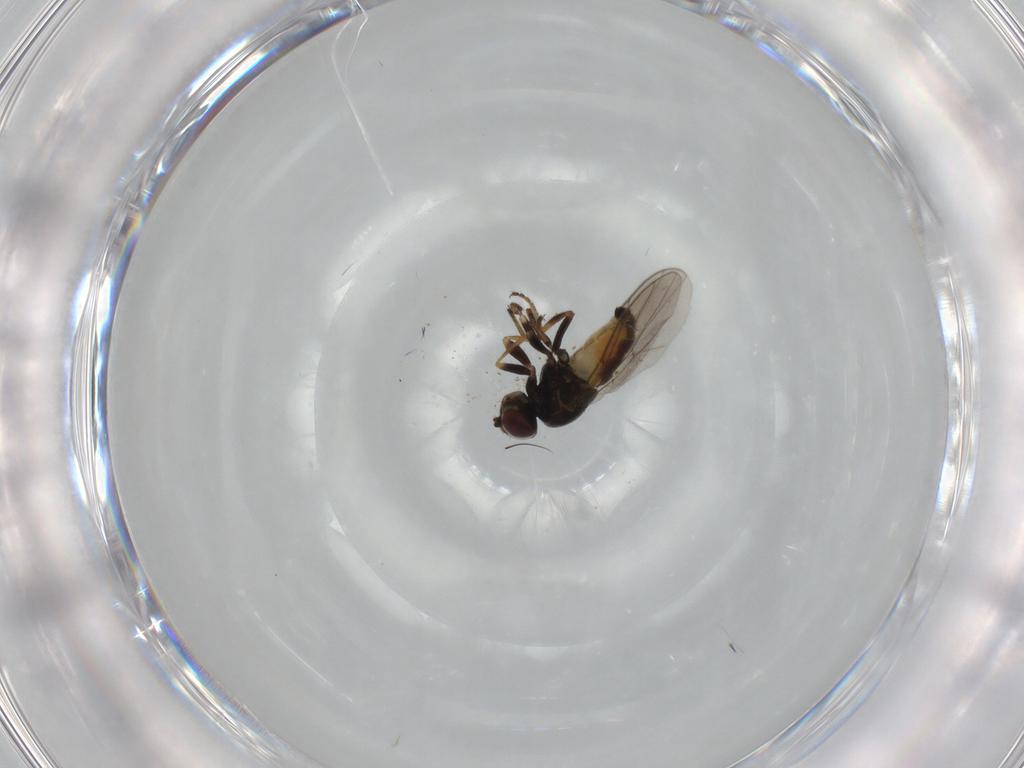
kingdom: Animalia
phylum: Arthropoda
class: Insecta
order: Diptera
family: Chloropidae
